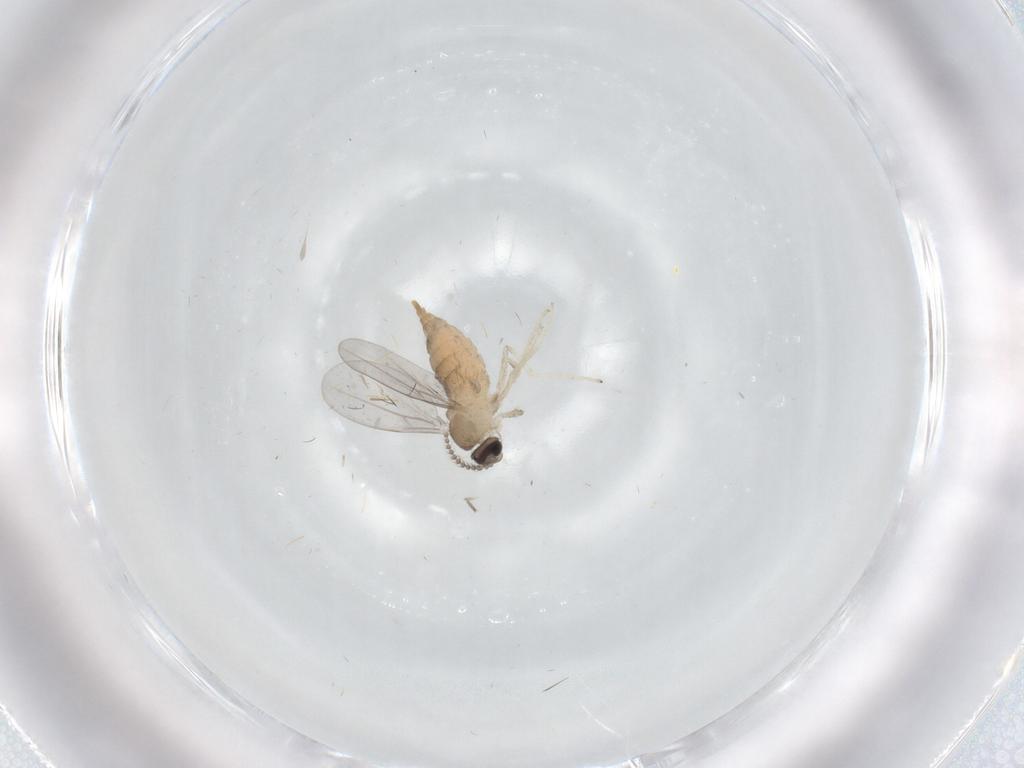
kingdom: Animalia
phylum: Arthropoda
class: Insecta
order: Diptera
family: Cecidomyiidae
